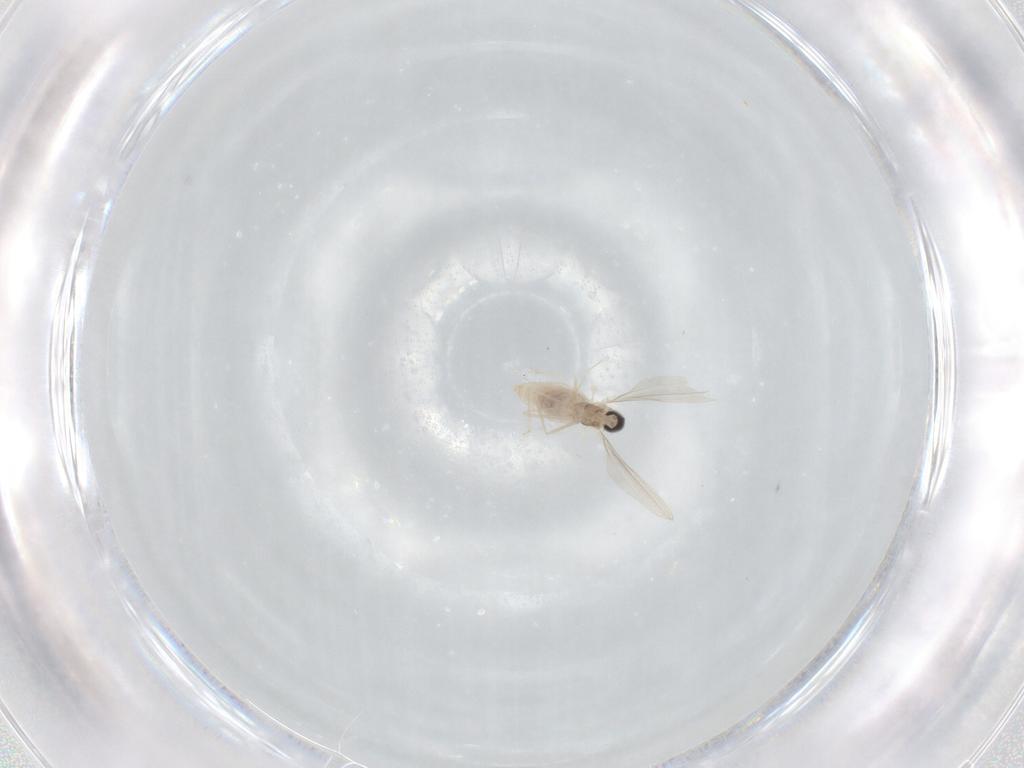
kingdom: Animalia
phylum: Arthropoda
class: Insecta
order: Diptera
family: Cecidomyiidae
